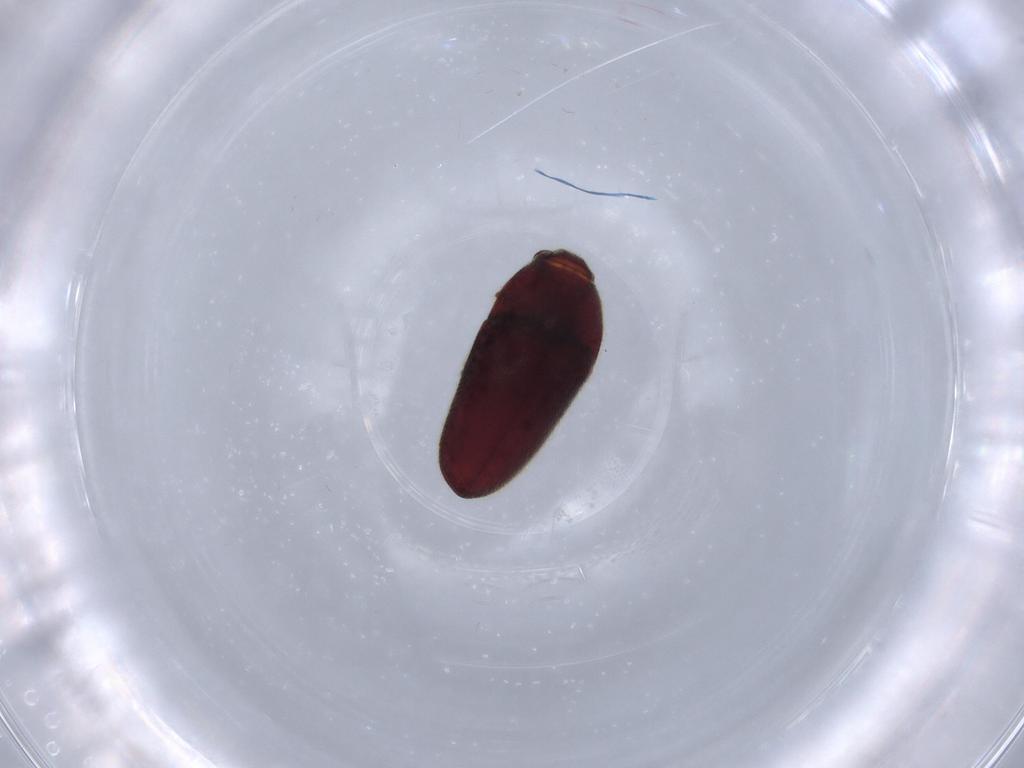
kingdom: Animalia
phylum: Arthropoda
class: Insecta
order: Coleoptera
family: Throscidae
